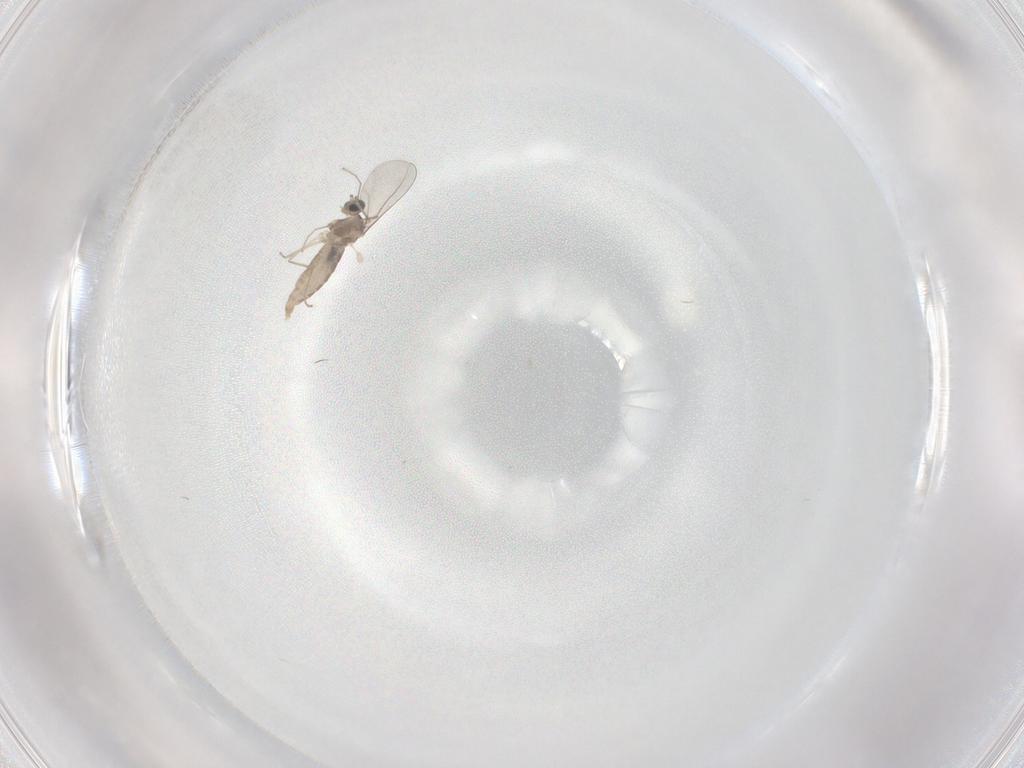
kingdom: Animalia
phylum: Arthropoda
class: Insecta
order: Diptera
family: Cecidomyiidae
